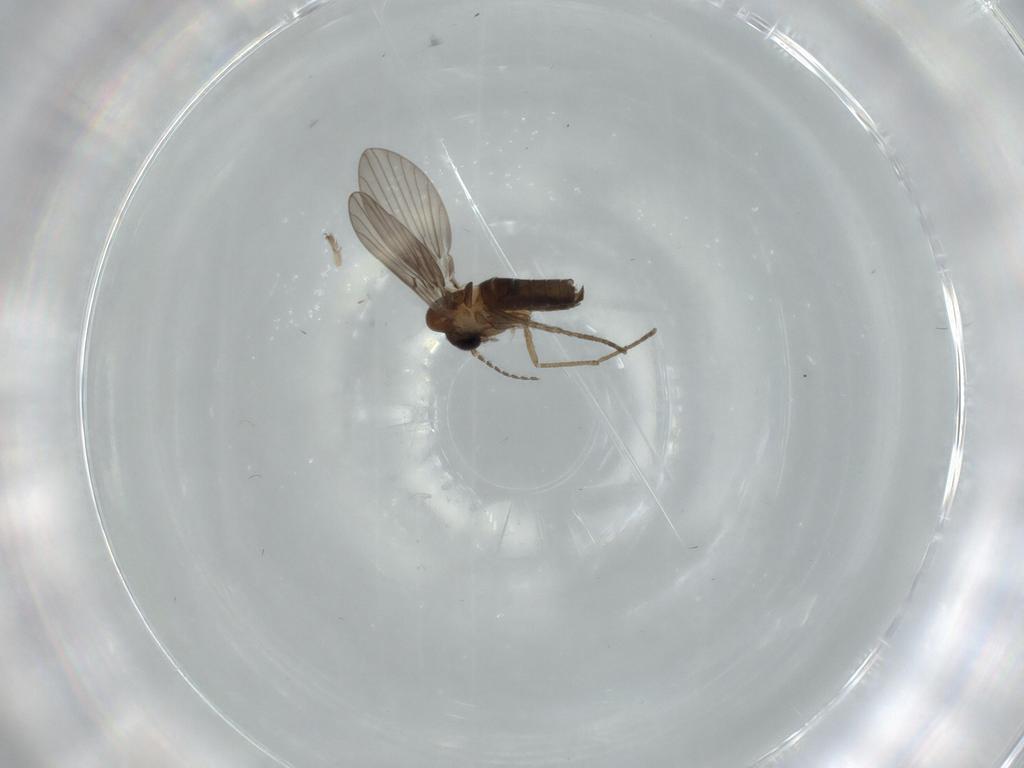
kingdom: Animalia
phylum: Arthropoda
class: Insecta
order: Diptera
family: Clusiidae
